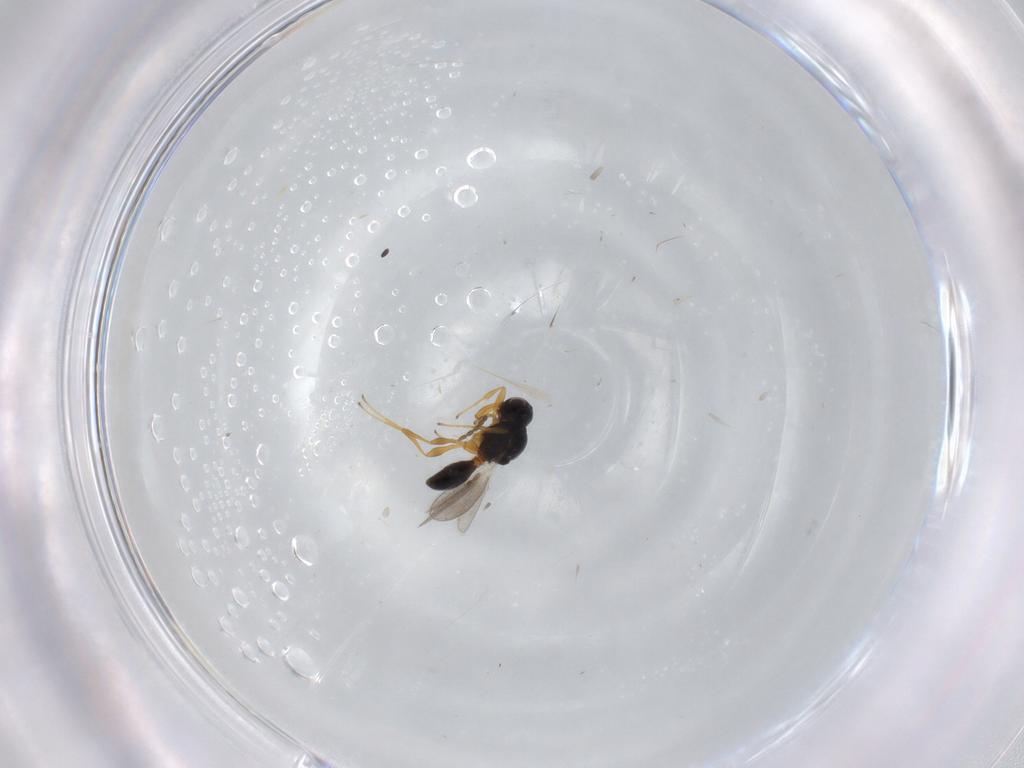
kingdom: Animalia
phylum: Arthropoda
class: Insecta
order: Hymenoptera
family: Platygastridae
